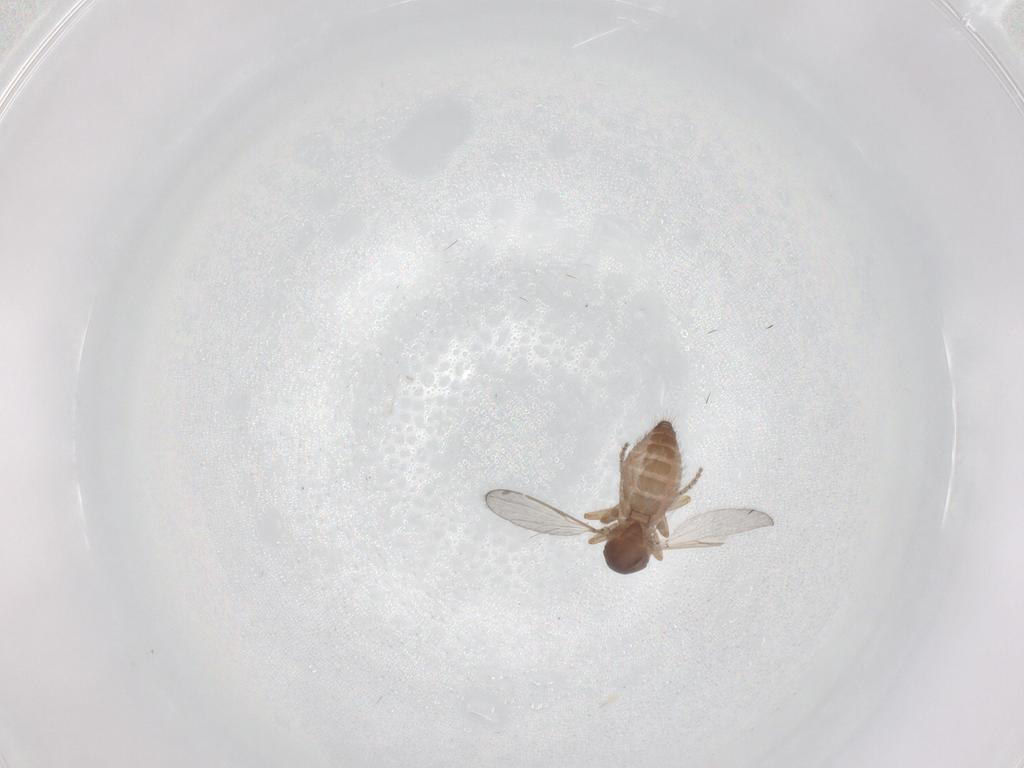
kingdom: Animalia
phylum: Arthropoda
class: Insecta
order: Diptera
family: Ceratopogonidae
